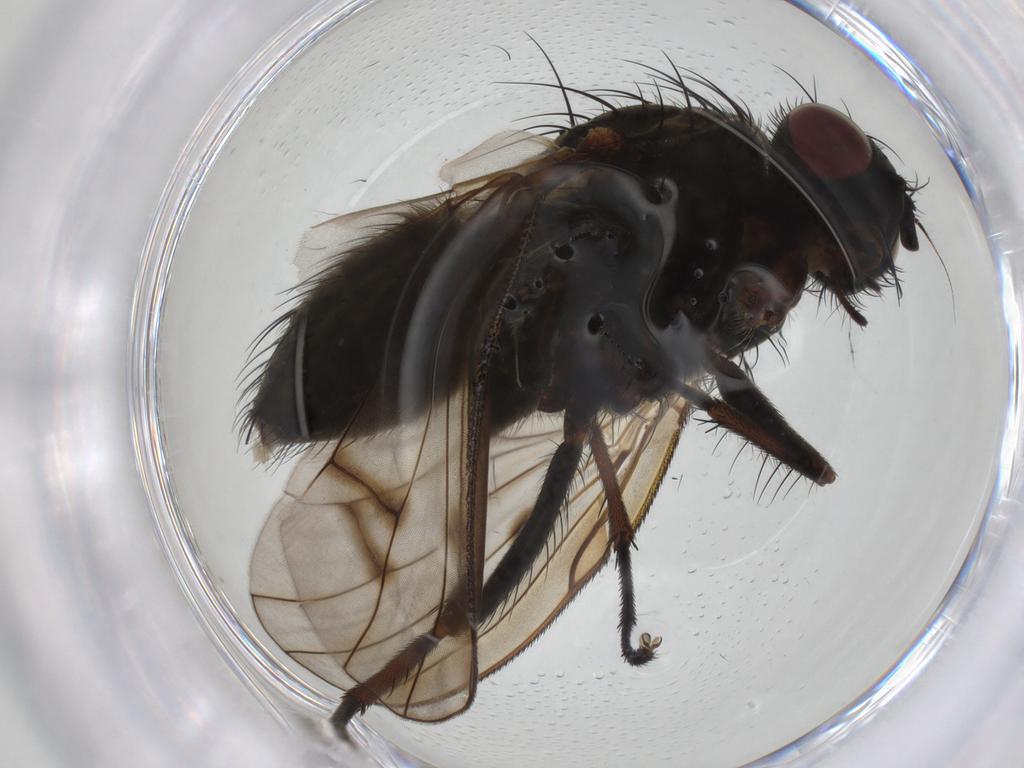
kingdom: Animalia
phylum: Arthropoda
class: Insecta
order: Diptera
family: Muscidae
